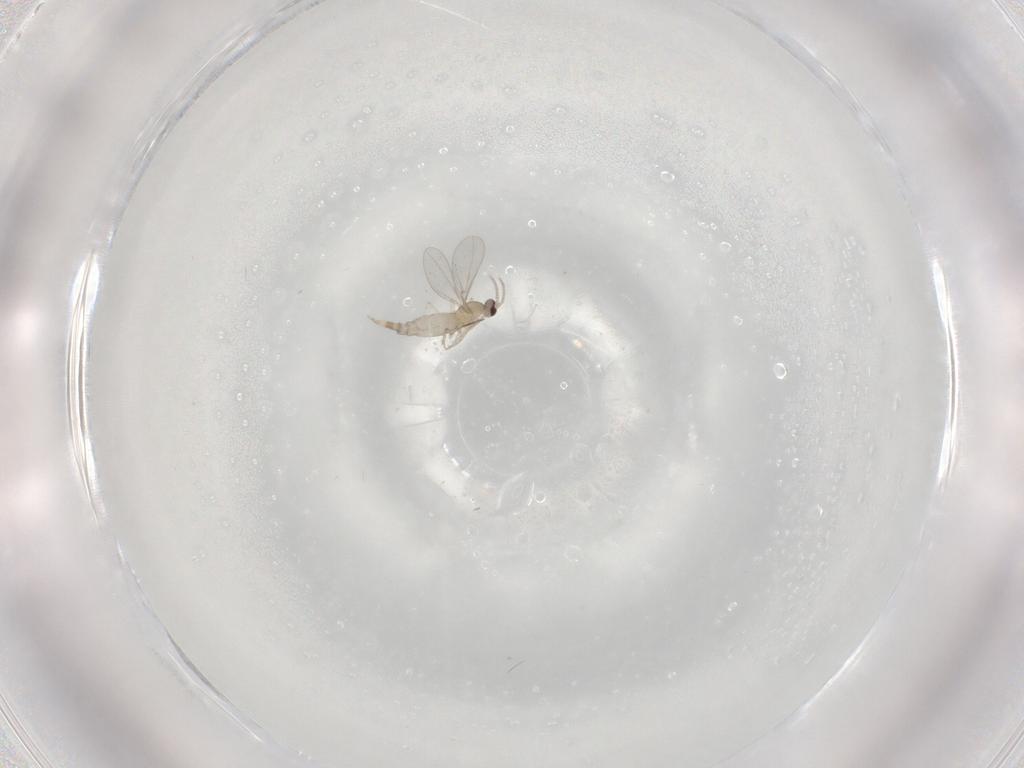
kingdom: Animalia
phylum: Arthropoda
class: Insecta
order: Diptera
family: Cecidomyiidae
